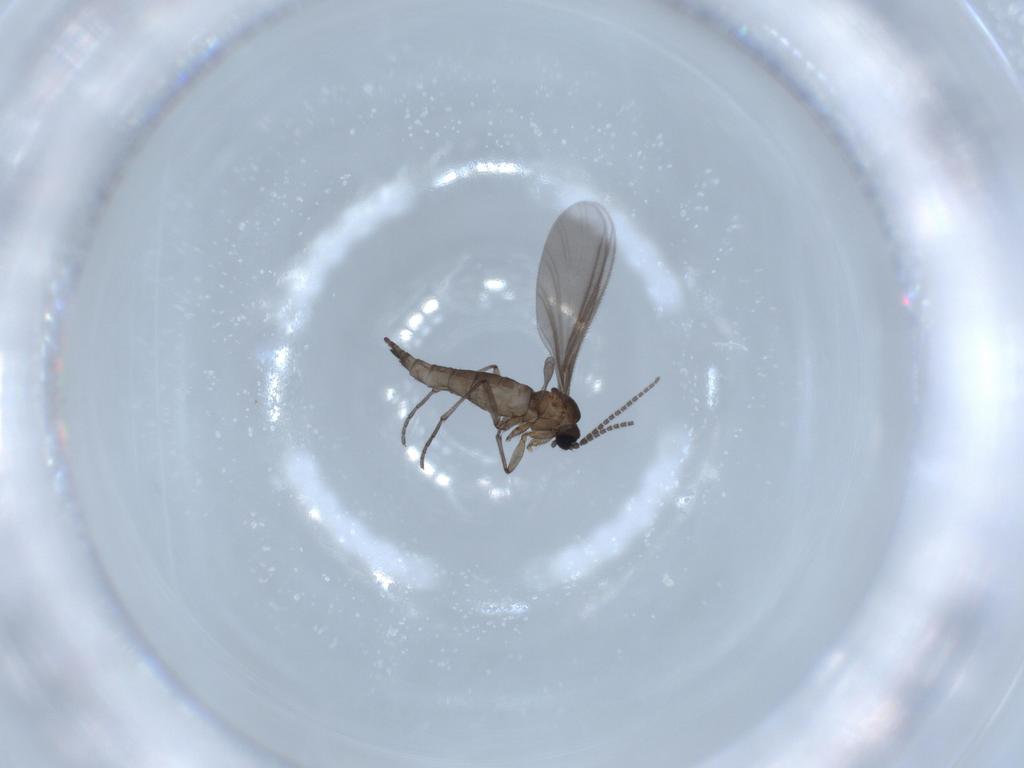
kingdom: Animalia
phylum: Arthropoda
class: Insecta
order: Diptera
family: Sciaridae
